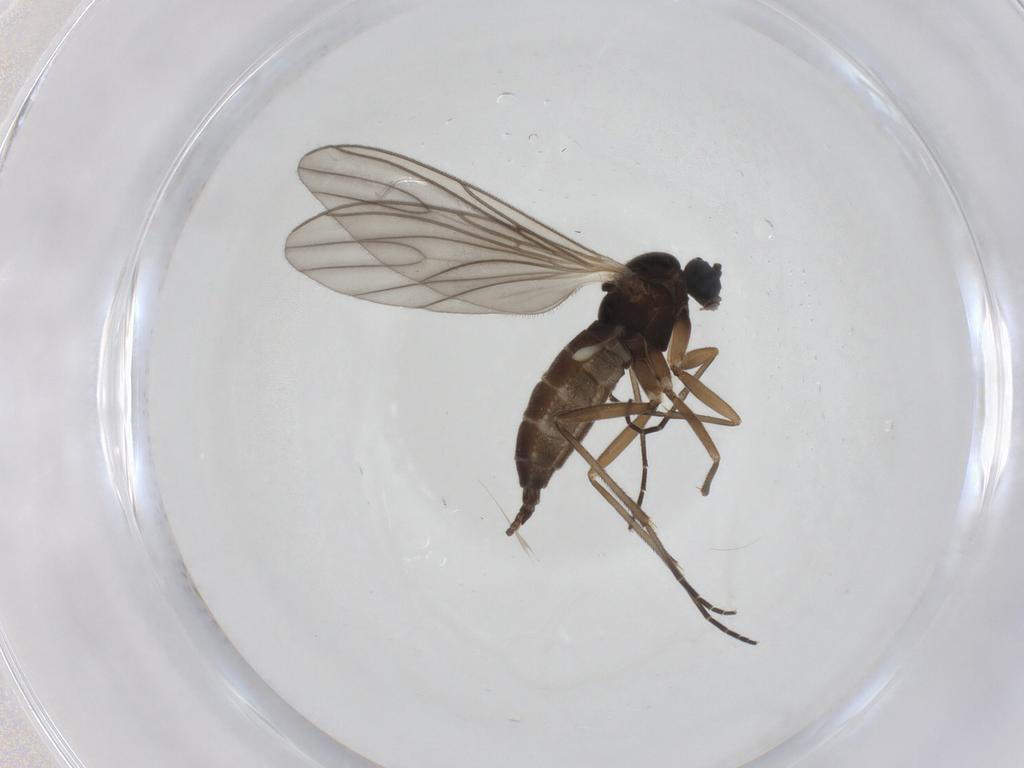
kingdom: Animalia
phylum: Arthropoda
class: Insecta
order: Diptera
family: Sciaridae
